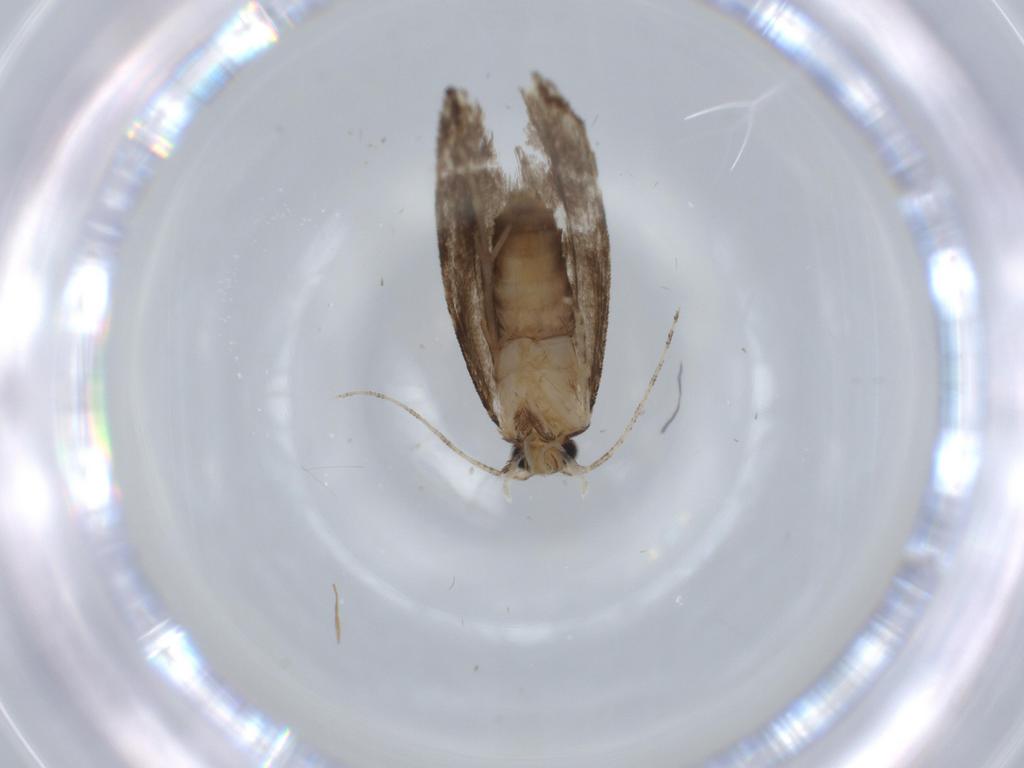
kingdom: Animalia
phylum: Arthropoda
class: Insecta
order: Lepidoptera
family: Tineidae
